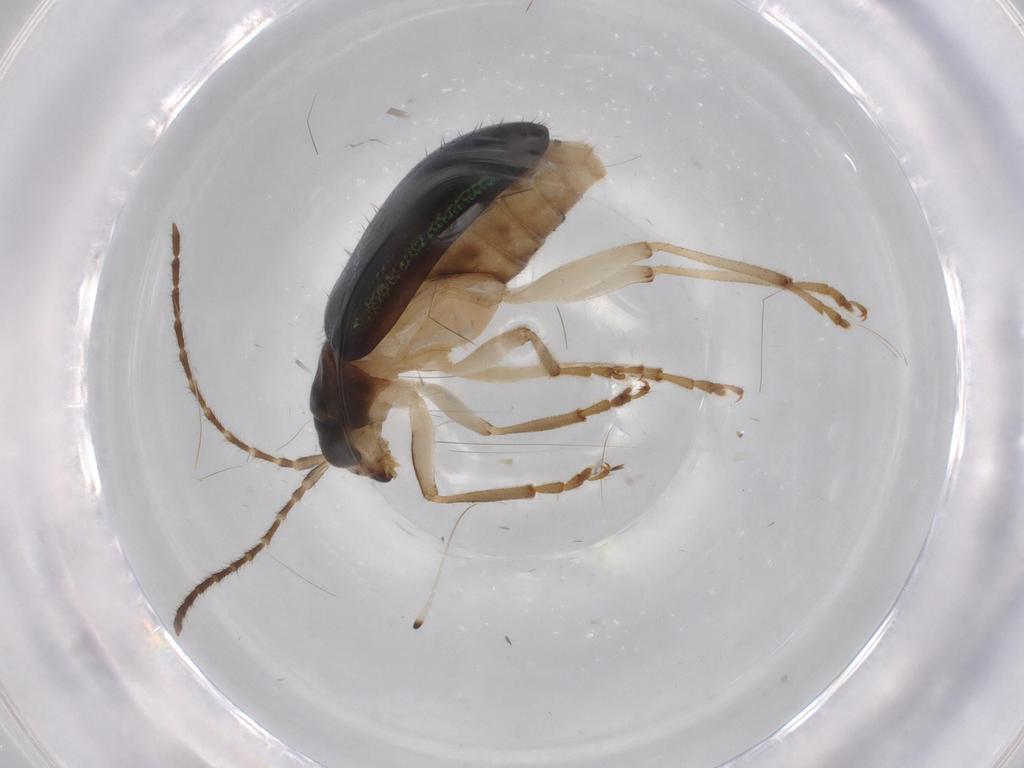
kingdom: Animalia
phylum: Arthropoda
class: Insecta
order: Coleoptera
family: Chrysomelidae
